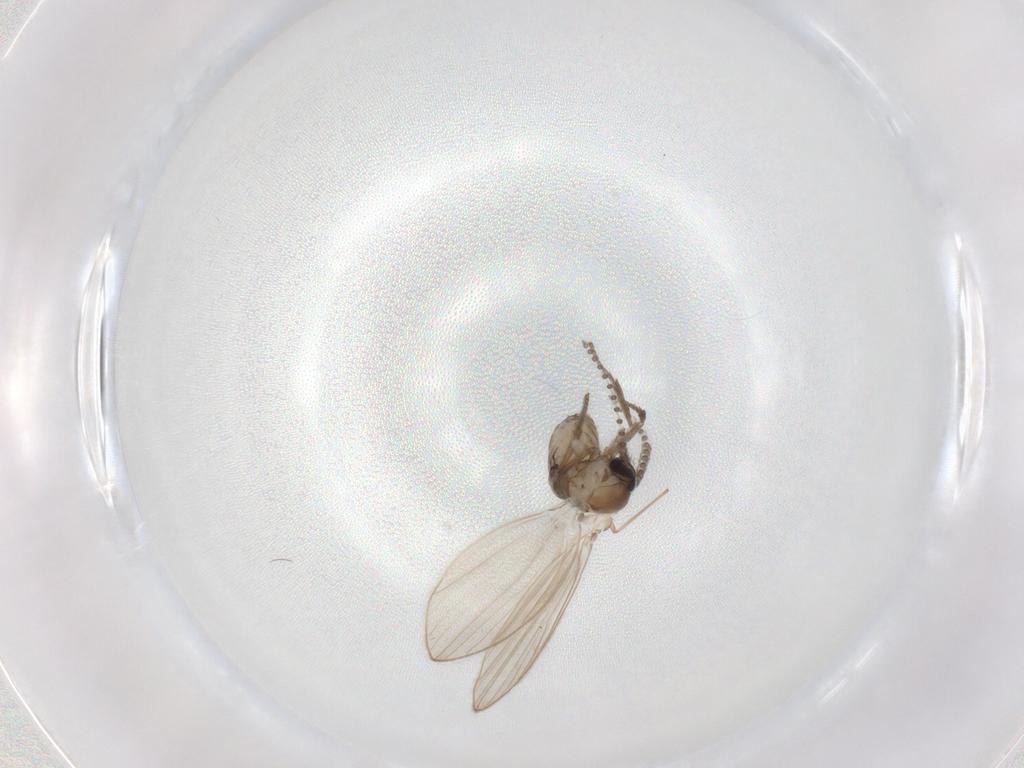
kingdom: Animalia
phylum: Arthropoda
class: Insecta
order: Diptera
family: Psychodidae
